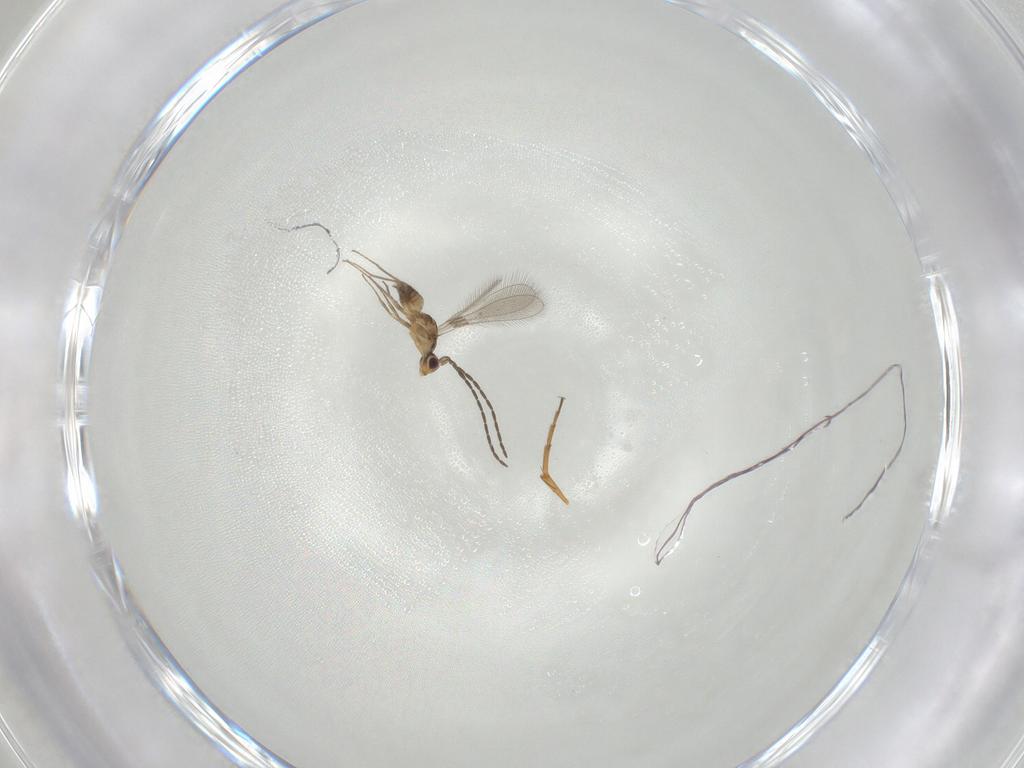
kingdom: Animalia
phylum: Arthropoda
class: Insecta
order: Hymenoptera
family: Mymaridae
